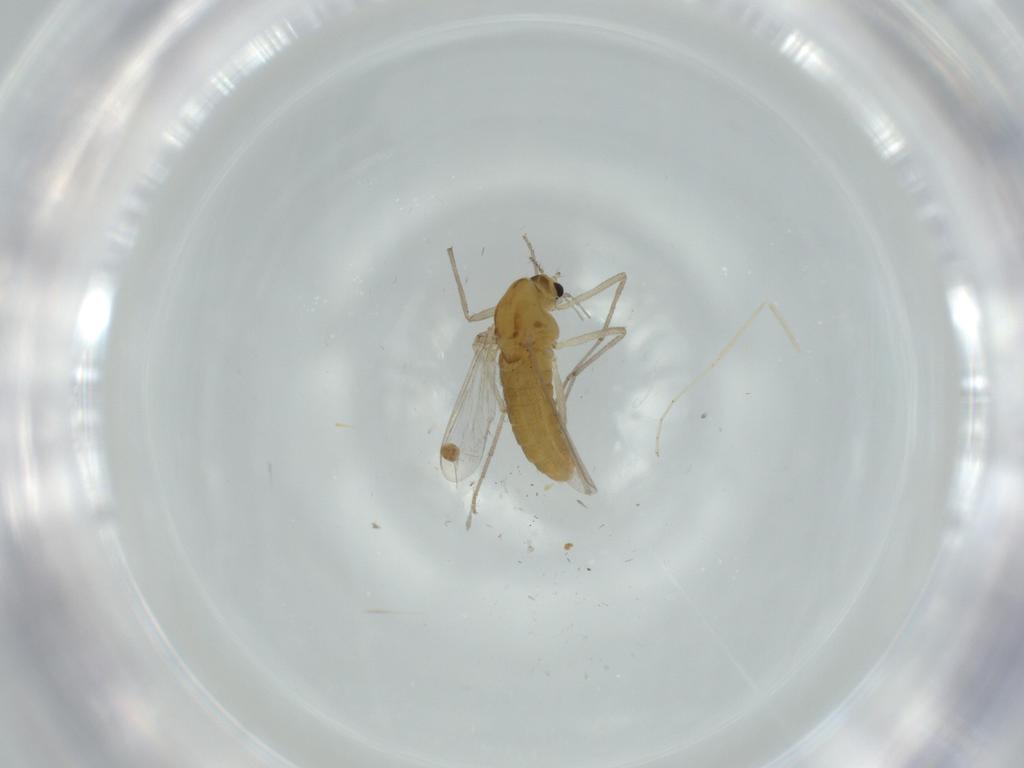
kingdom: Animalia
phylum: Arthropoda
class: Insecta
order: Diptera
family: Chironomidae
